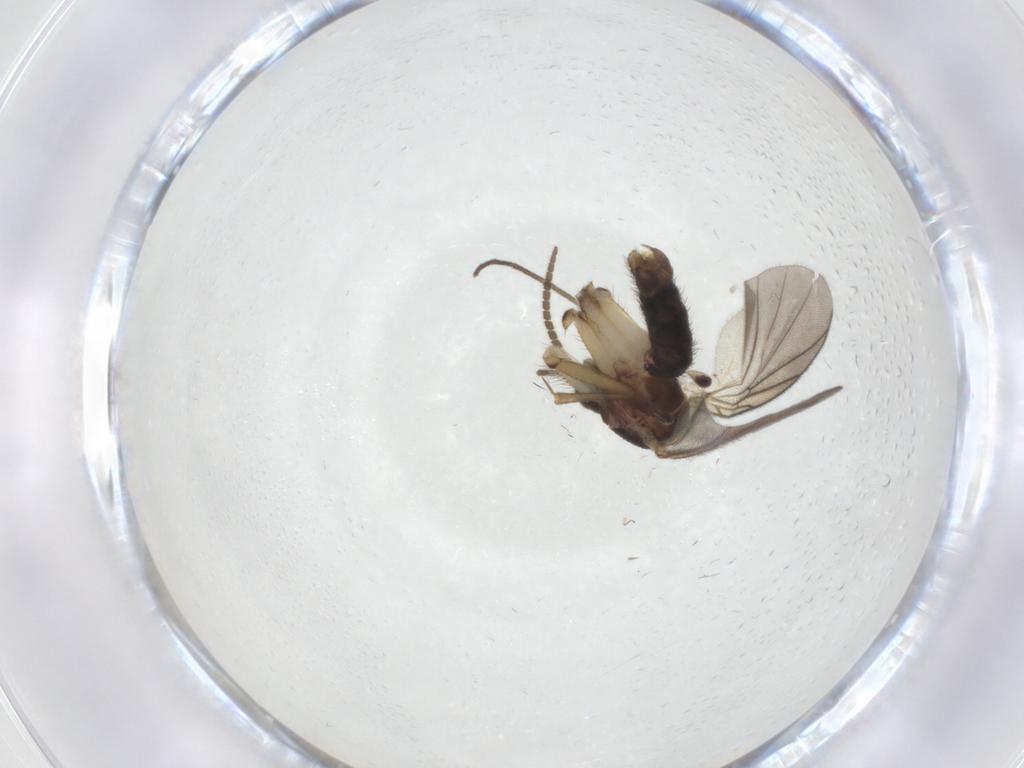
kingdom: Animalia
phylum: Arthropoda
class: Insecta
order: Diptera
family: Mycetophilidae
